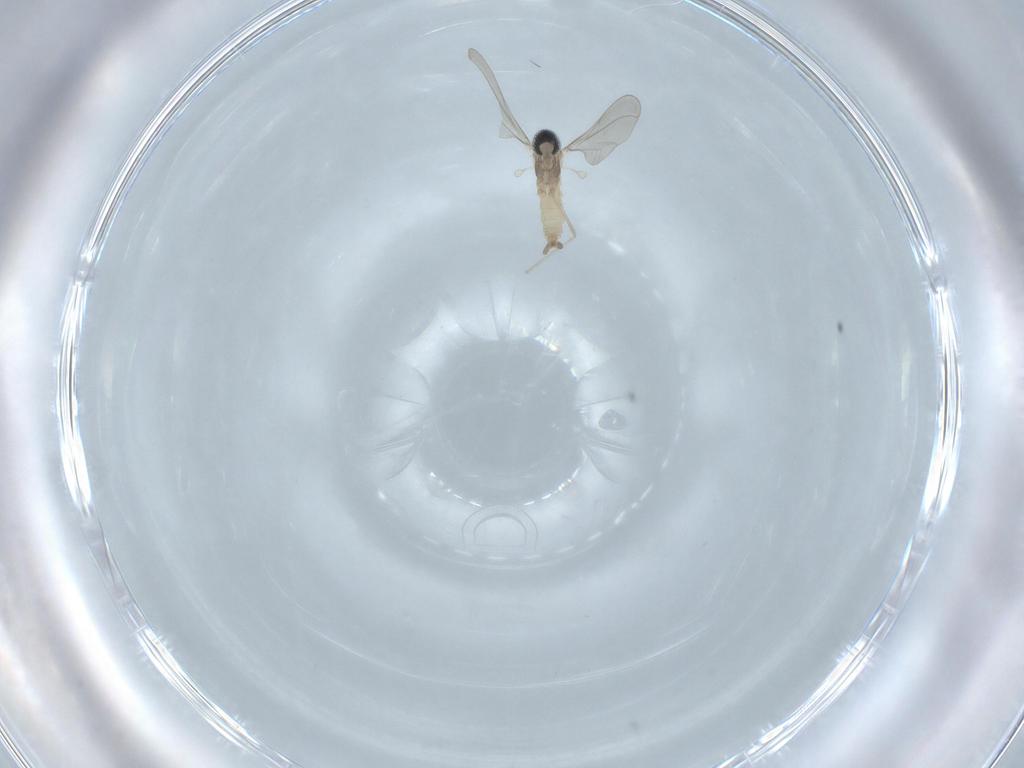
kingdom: Animalia
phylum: Arthropoda
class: Insecta
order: Diptera
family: Cecidomyiidae
